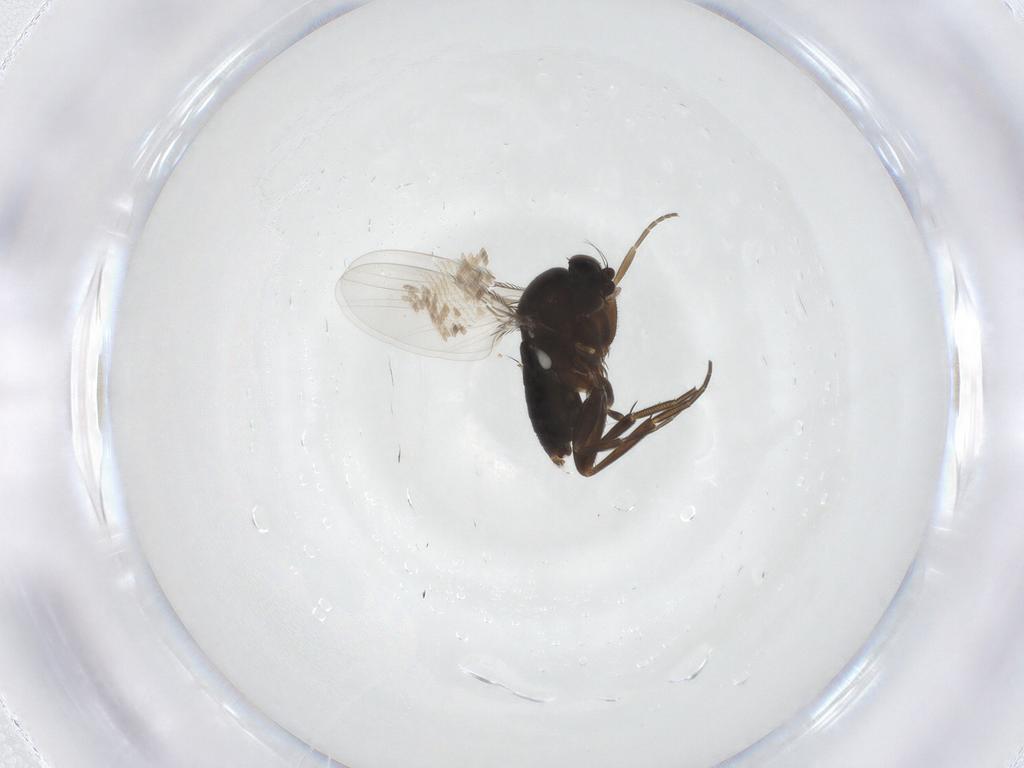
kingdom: Animalia
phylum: Arthropoda
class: Insecta
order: Diptera
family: Phoridae
